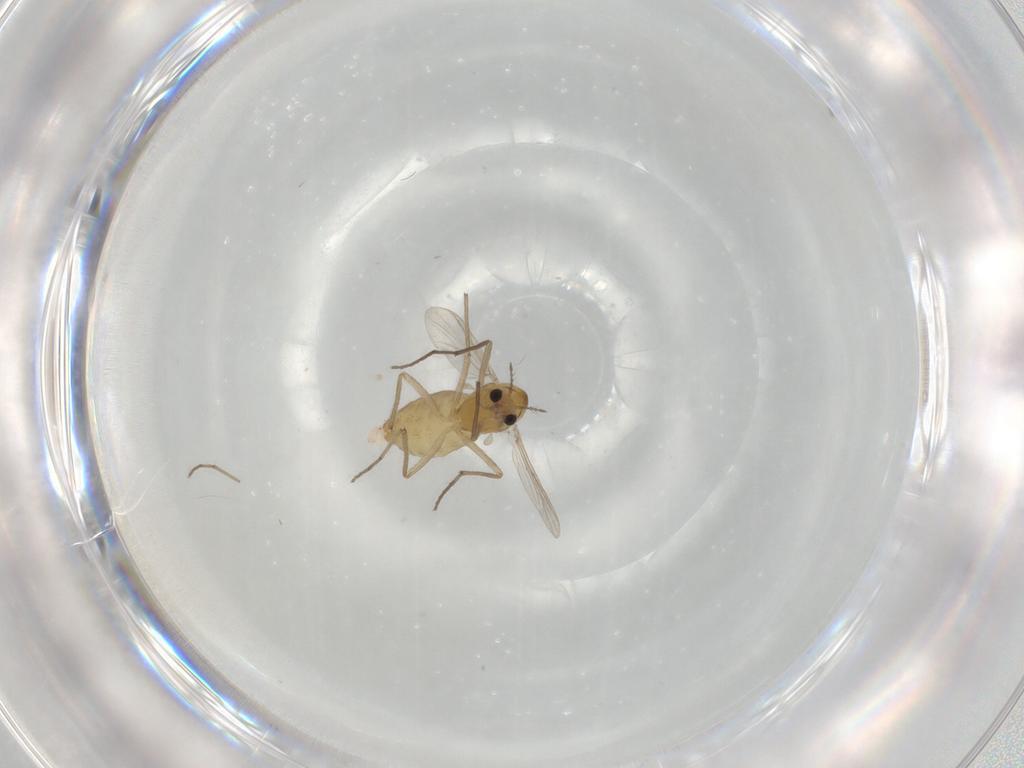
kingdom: Animalia
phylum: Arthropoda
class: Insecta
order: Diptera
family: Chironomidae
